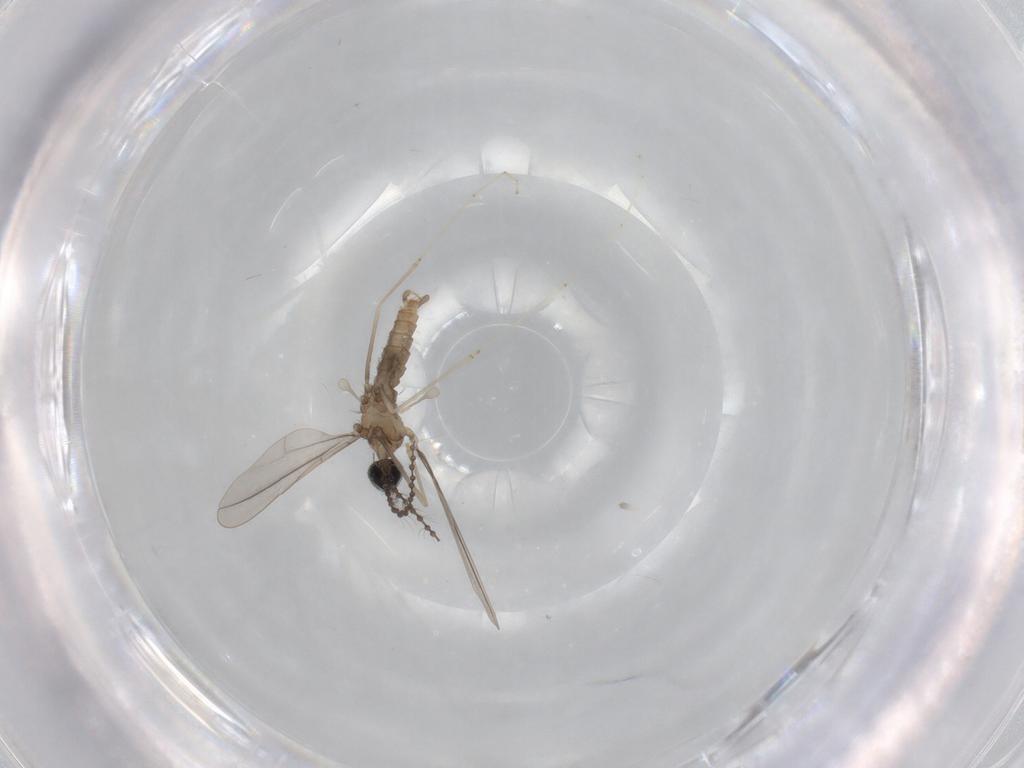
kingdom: Animalia
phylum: Arthropoda
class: Insecta
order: Diptera
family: Chironomidae
